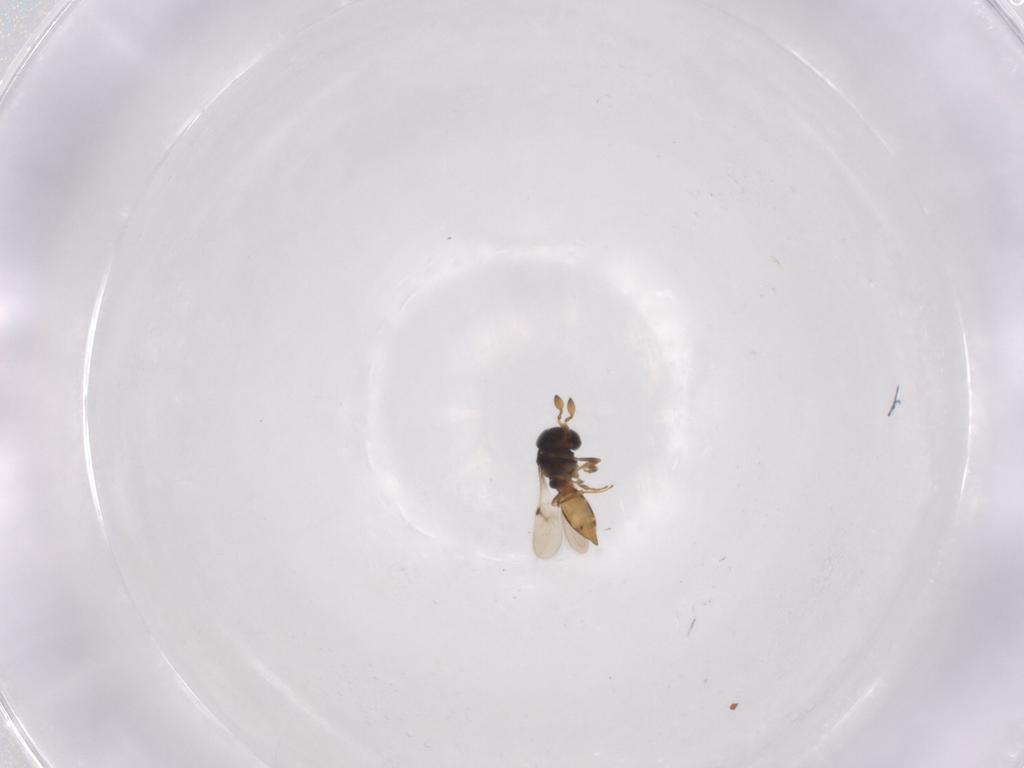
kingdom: Animalia
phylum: Arthropoda
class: Insecta
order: Hymenoptera
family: Scelionidae
